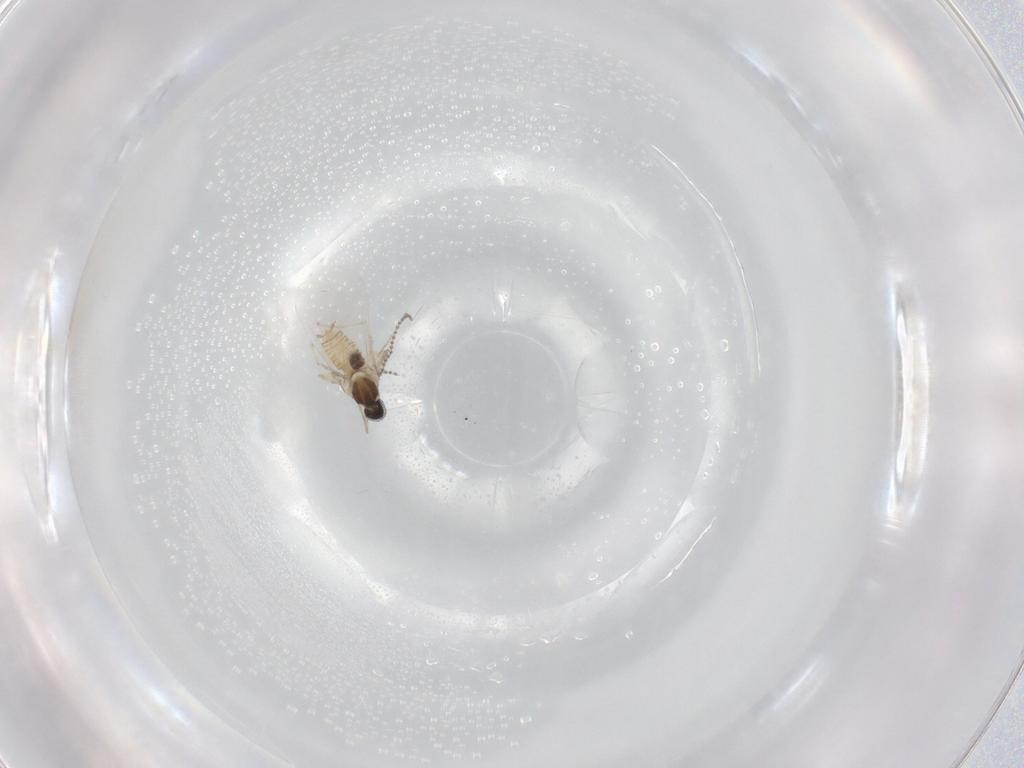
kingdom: Animalia
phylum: Arthropoda
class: Insecta
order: Diptera
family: Cecidomyiidae
